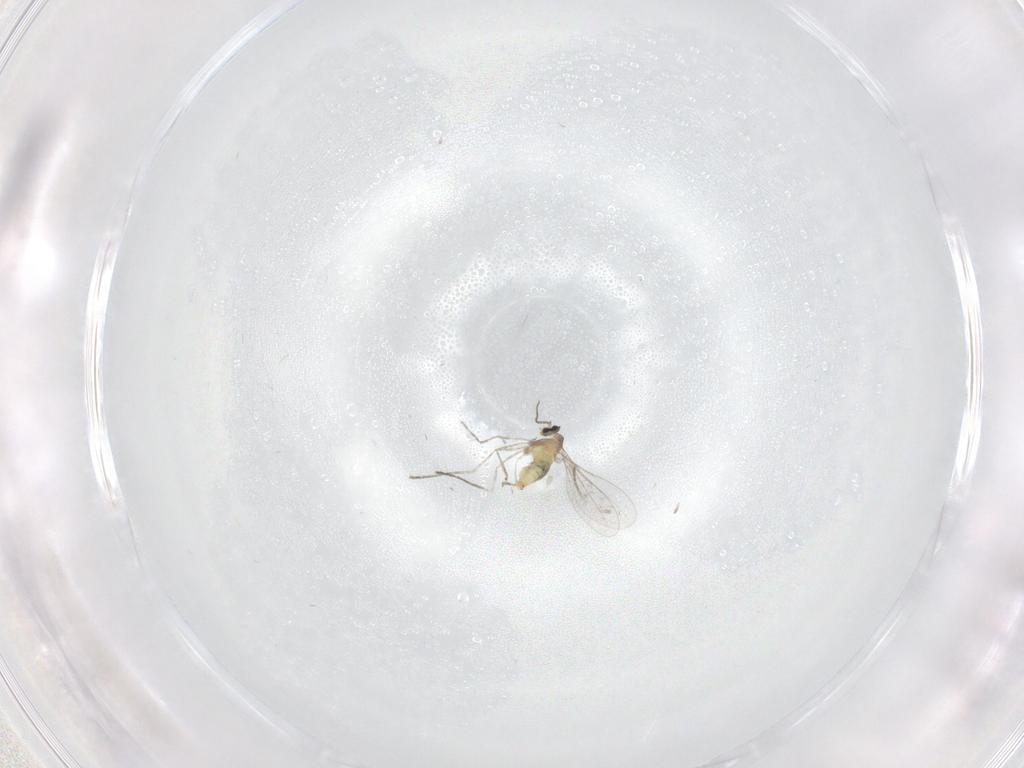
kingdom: Animalia
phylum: Arthropoda
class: Insecta
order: Diptera
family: Cecidomyiidae
